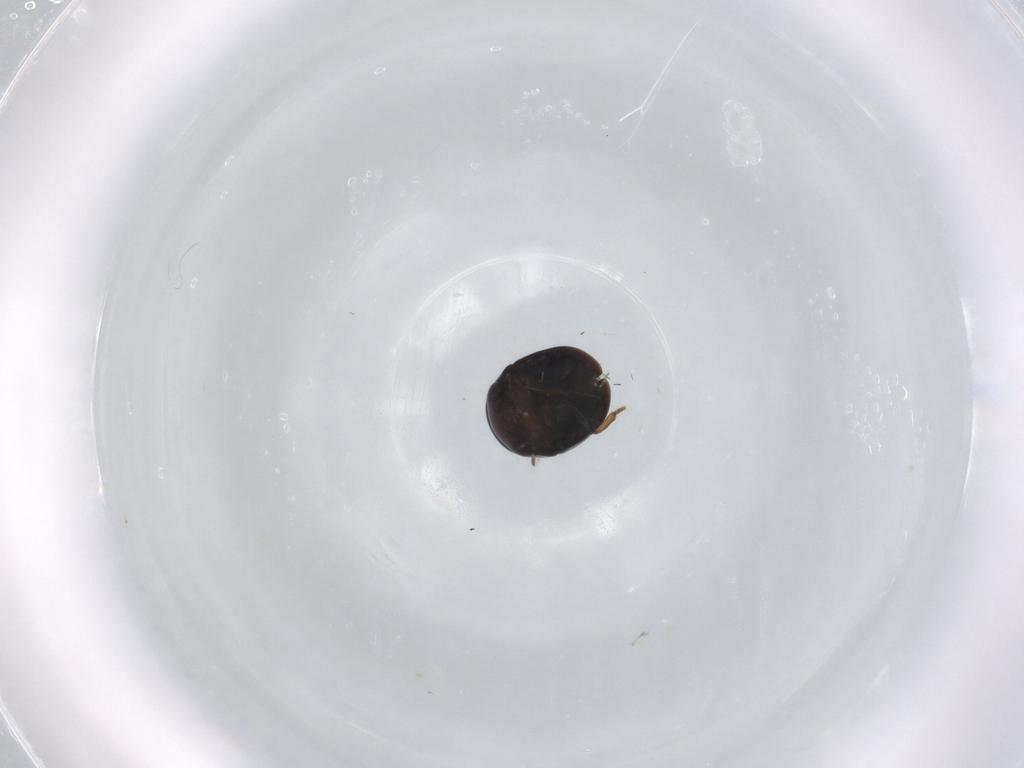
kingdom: Animalia
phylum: Arthropoda
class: Insecta
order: Coleoptera
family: Cybocephalidae
